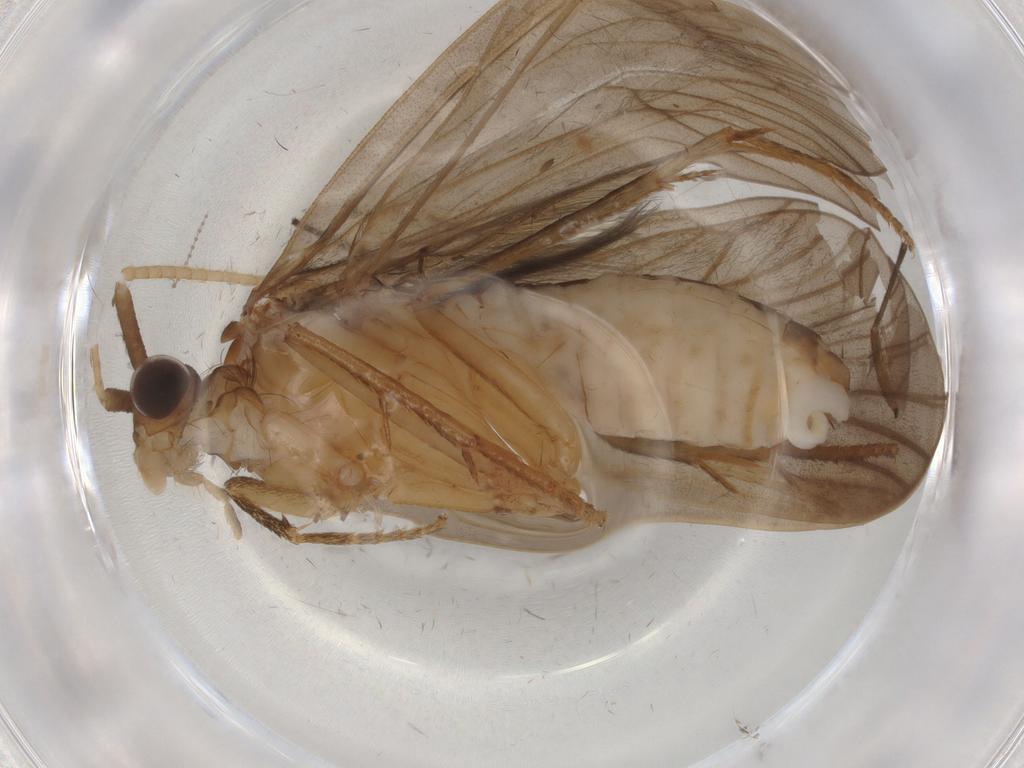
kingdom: Animalia
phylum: Arthropoda
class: Insecta
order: Trichoptera
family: Lepidostomatidae
